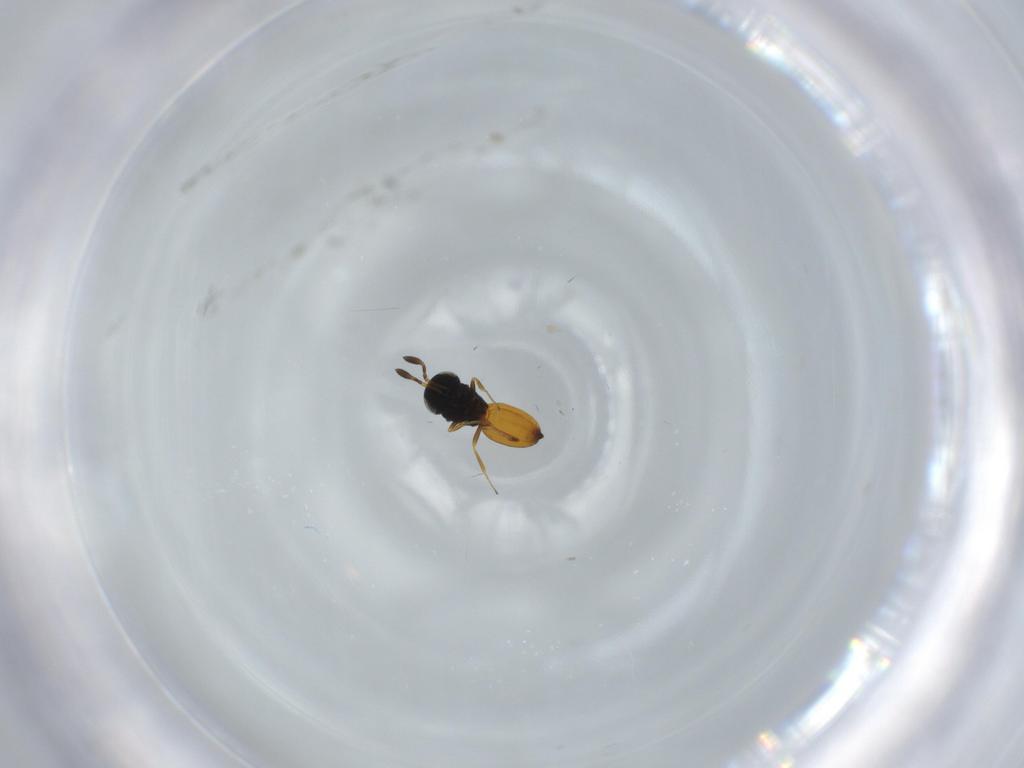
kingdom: Animalia
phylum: Arthropoda
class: Insecta
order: Hymenoptera
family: Scelionidae
